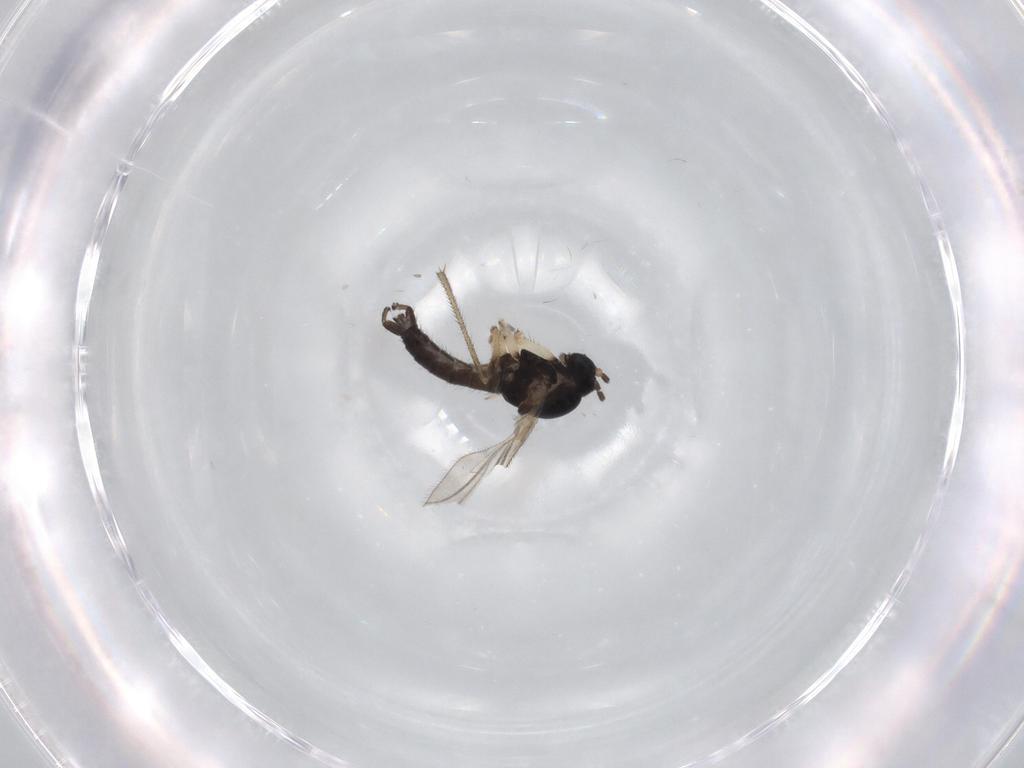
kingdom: Animalia
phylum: Arthropoda
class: Insecta
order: Diptera
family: Sciaridae
